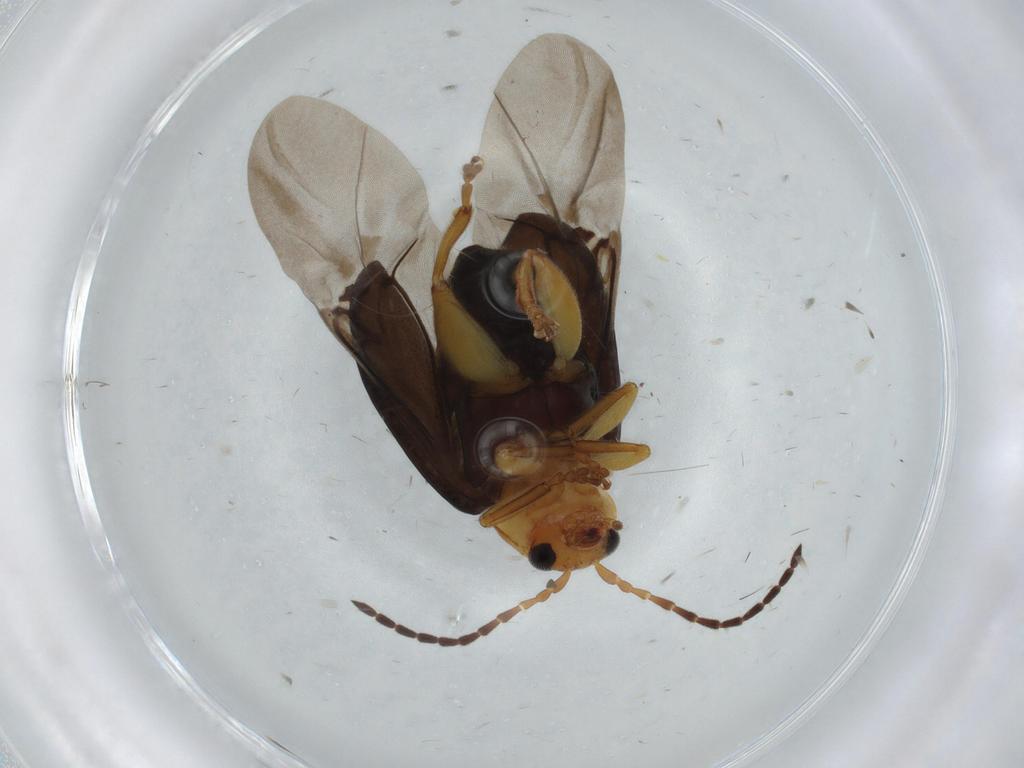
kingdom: Animalia
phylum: Arthropoda
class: Insecta
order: Coleoptera
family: Chrysomelidae
